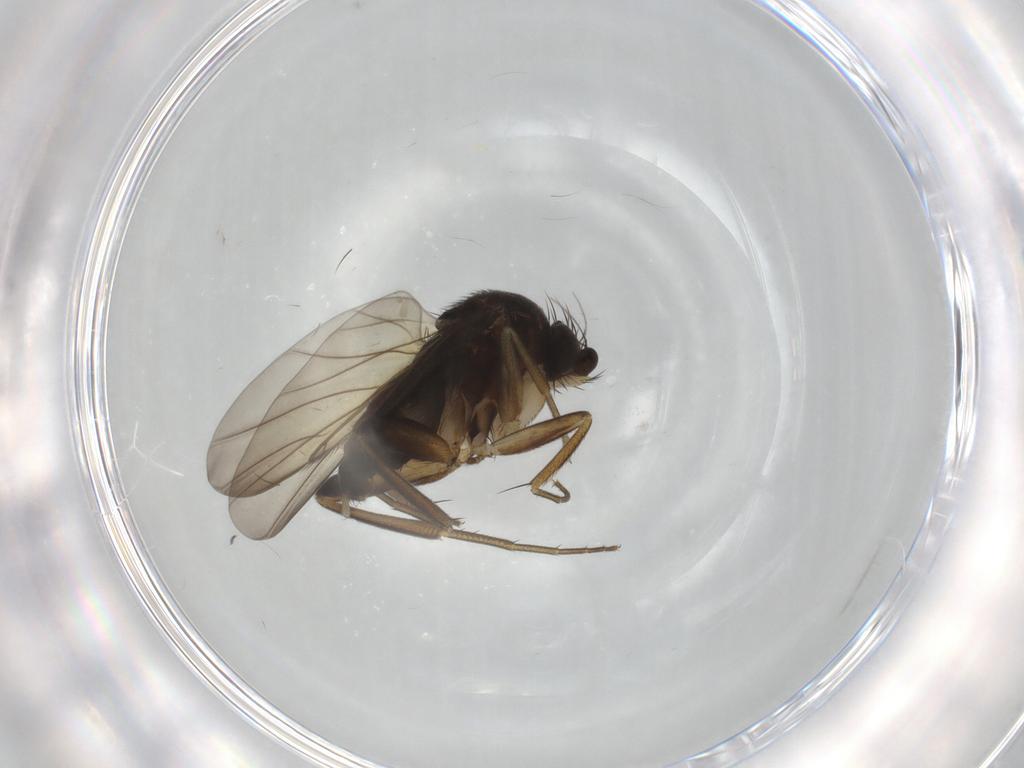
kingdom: Animalia
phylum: Arthropoda
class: Insecta
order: Diptera
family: Phoridae
